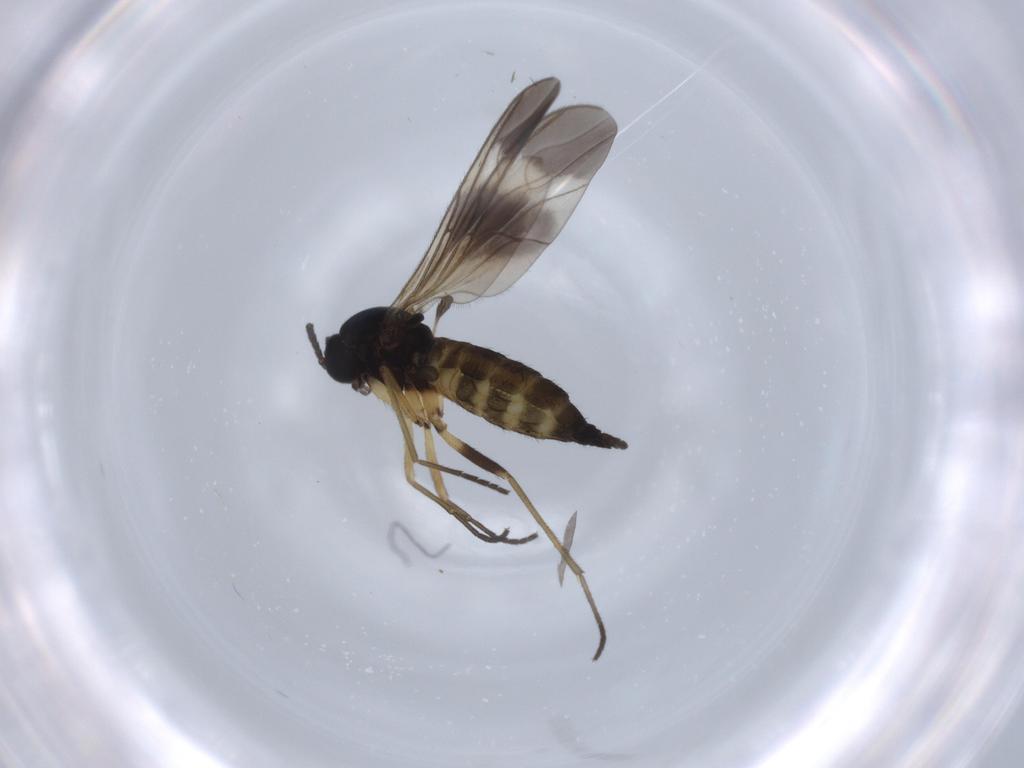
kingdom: Animalia
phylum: Arthropoda
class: Insecta
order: Diptera
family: Sciaridae
